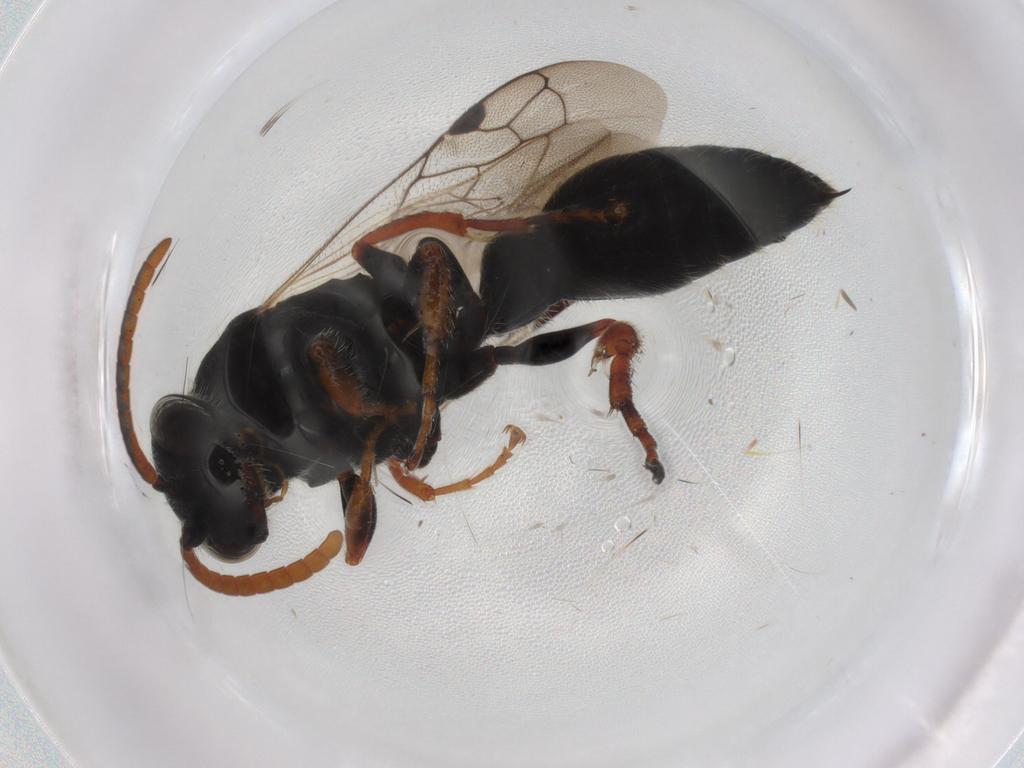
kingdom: Animalia
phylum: Arthropoda
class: Insecta
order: Hymenoptera
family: Tiphiidae
